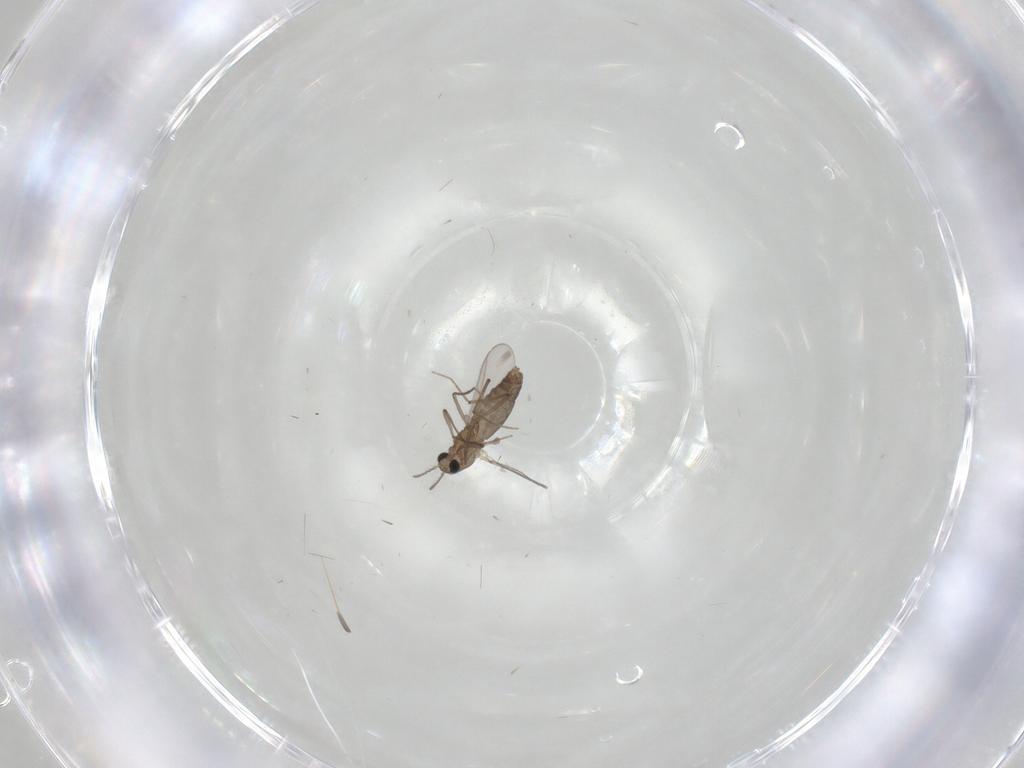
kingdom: Animalia
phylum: Arthropoda
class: Insecta
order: Diptera
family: Chironomidae
